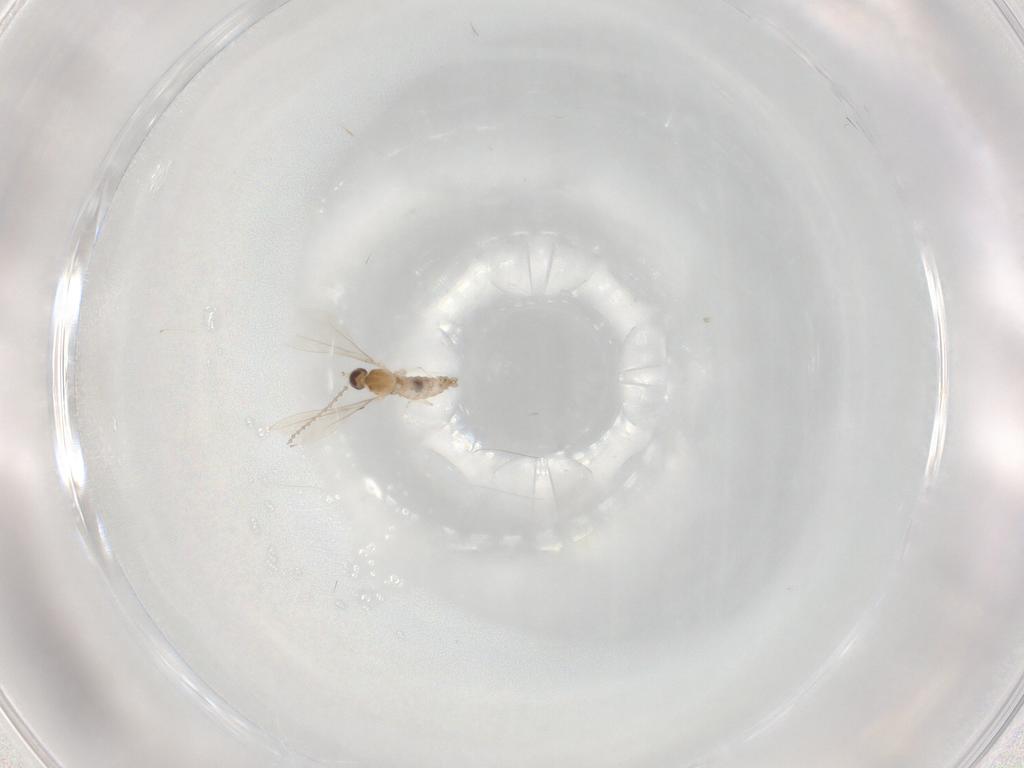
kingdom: Animalia
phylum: Arthropoda
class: Insecta
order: Diptera
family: Cecidomyiidae
